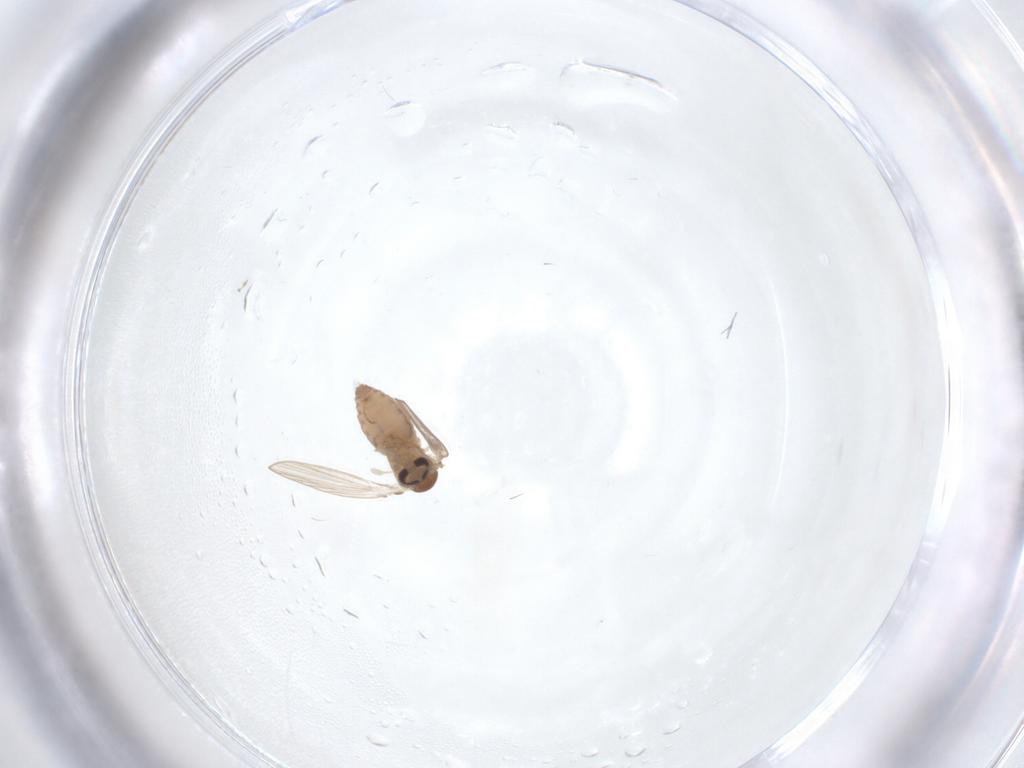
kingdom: Animalia
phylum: Arthropoda
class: Insecta
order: Diptera
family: Psychodidae
